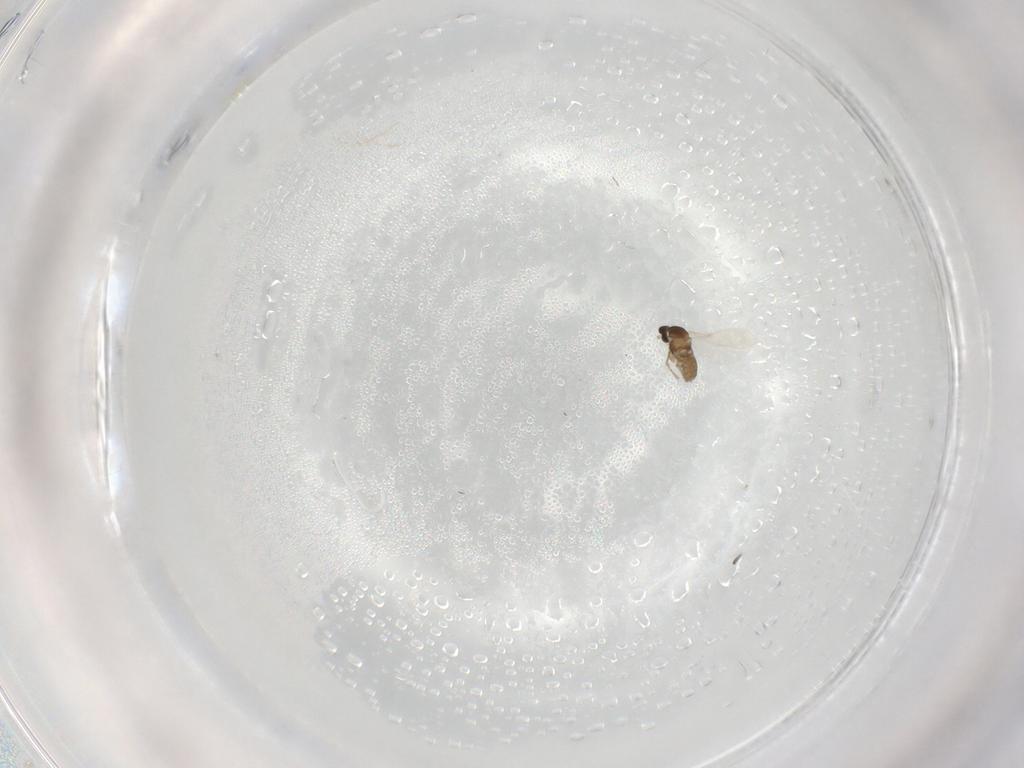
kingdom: Animalia
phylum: Arthropoda
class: Insecta
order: Diptera
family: Cecidomyiidae
